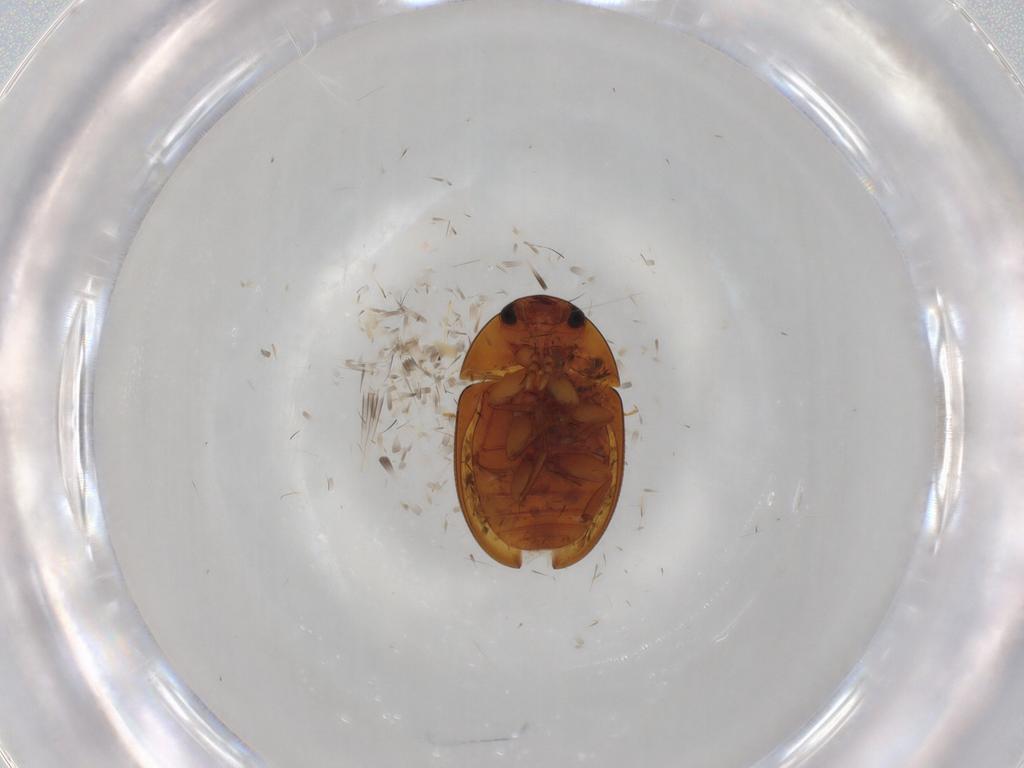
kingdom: Animalia
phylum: Arthropoda
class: Insecta
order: Coleoptera
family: Phalacridae
